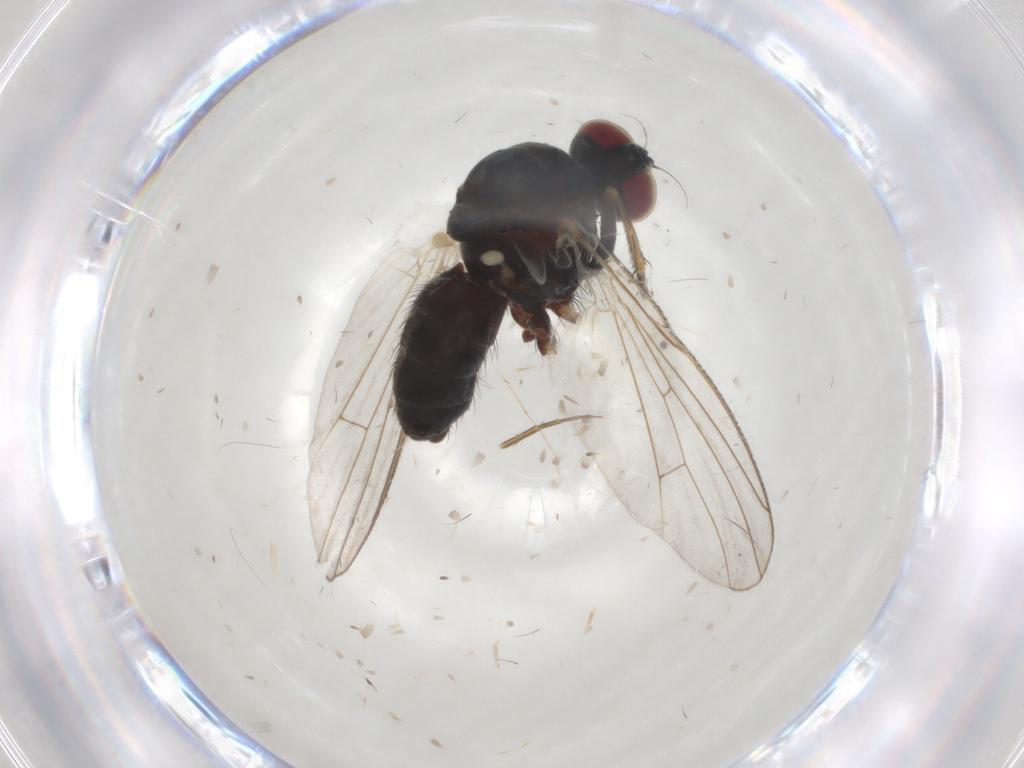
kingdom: Animalia
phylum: Arthropoda
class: Insecta
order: Diptera
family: Chironomidae
